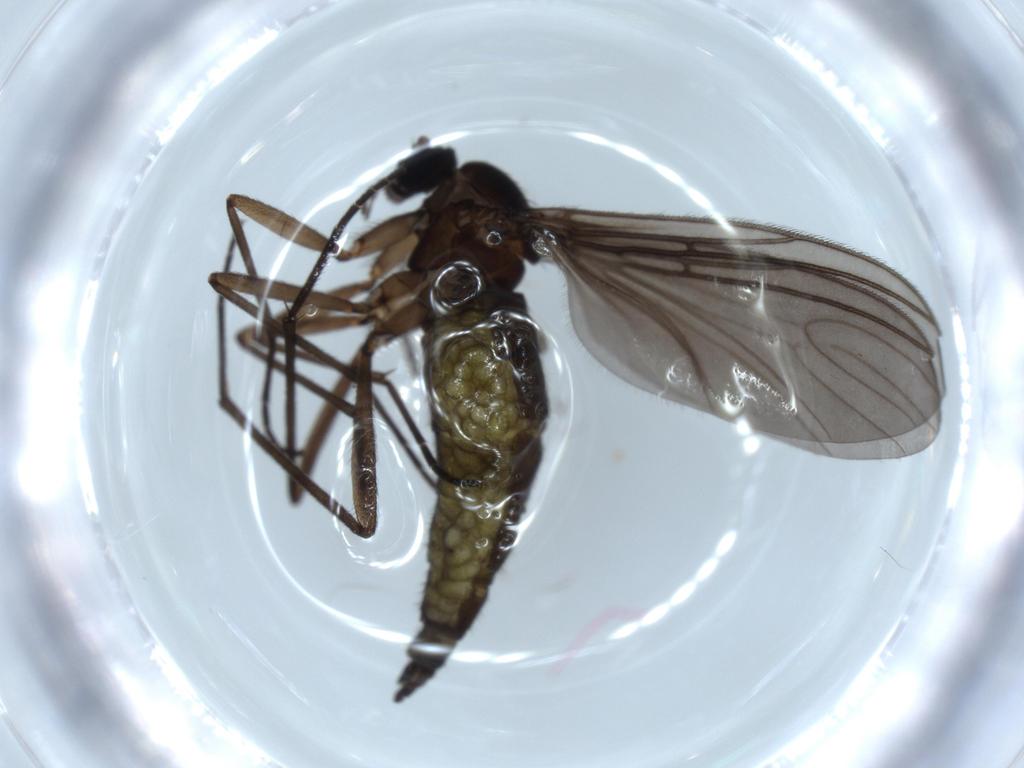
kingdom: Animalia
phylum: Arthropoda
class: Insecta
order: Diptera
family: Sciaridae
